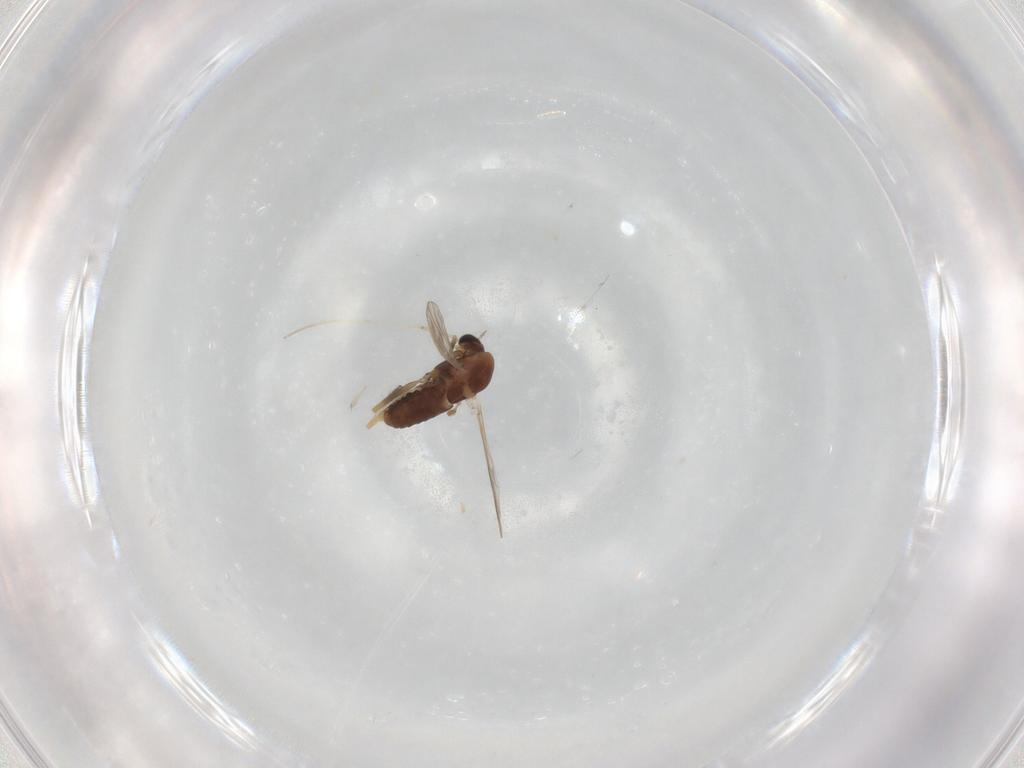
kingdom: Animalia
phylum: Arthropoda
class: Insecta
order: Diptera
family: Chironomidae
